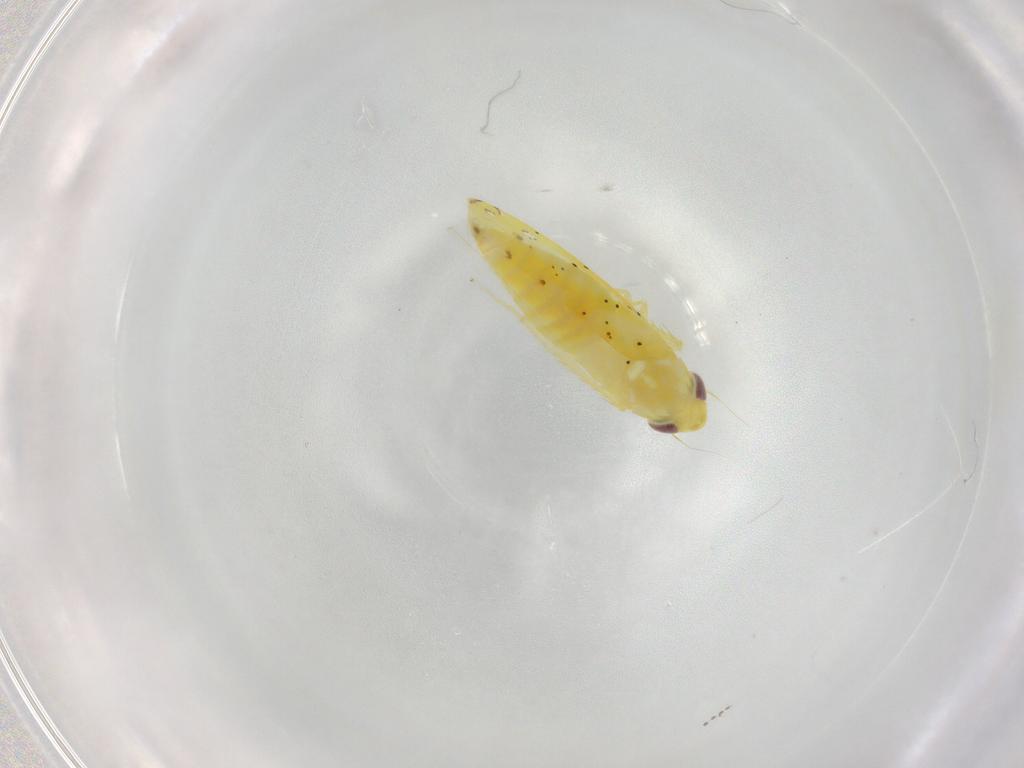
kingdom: Animalia
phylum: Arthropoda
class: Insecta
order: Hemiptera
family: Cicadellidae
